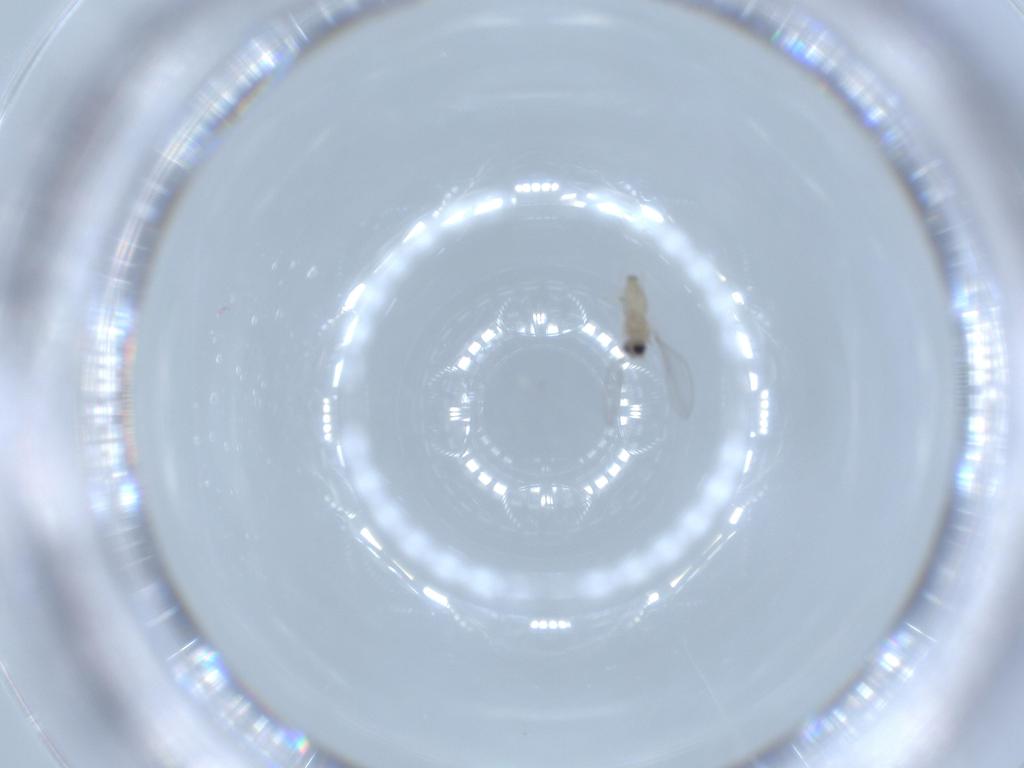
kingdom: Animalia
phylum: Arthropoda
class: Insecta
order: Diptera
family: Cecidomyiidae
